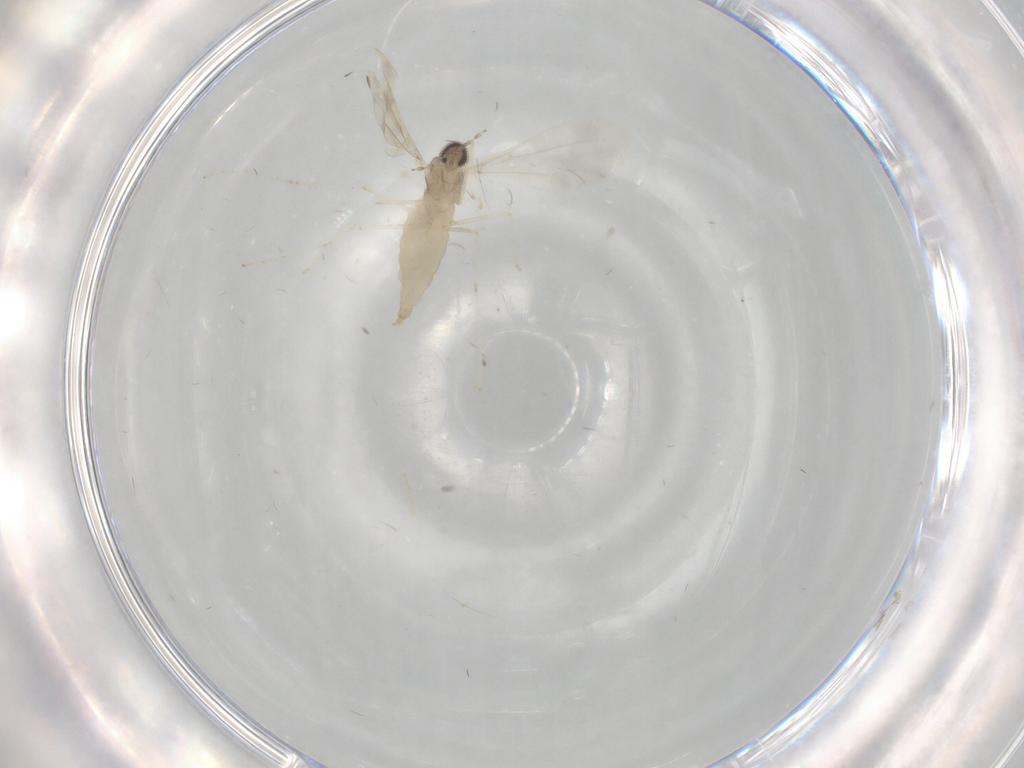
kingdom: Animalia
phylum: Arthropoda
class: Insecta
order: Diptera
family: Cecidomyiidae
